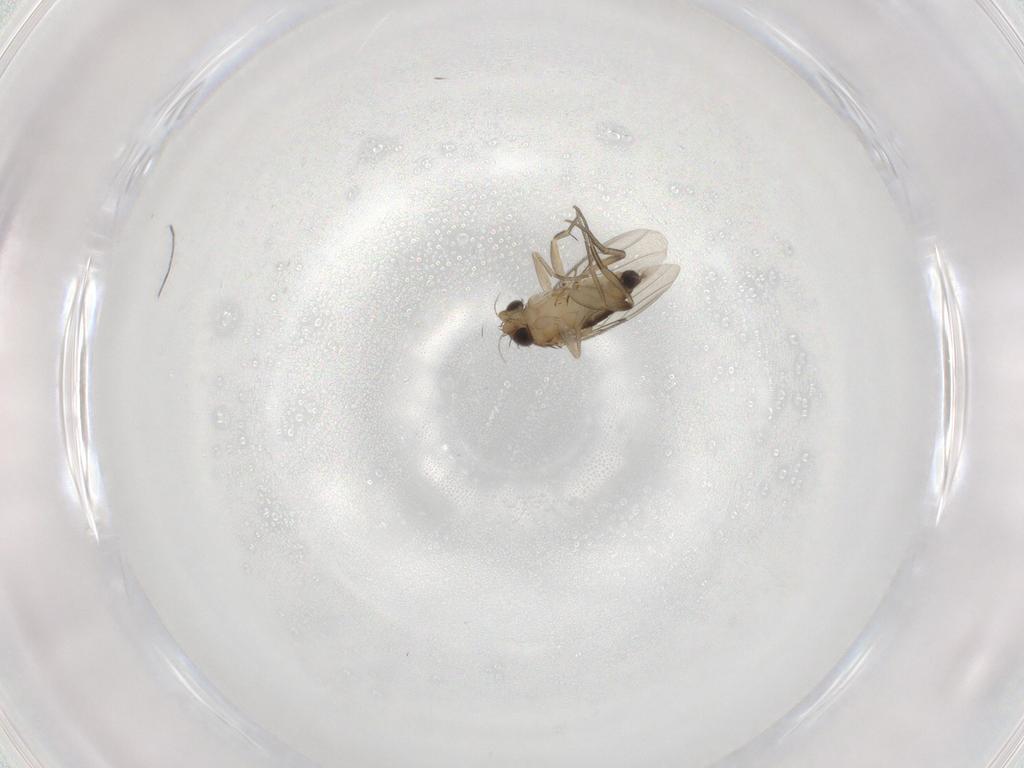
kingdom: Animalia
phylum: Arthropoda
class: Insecta
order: Diptera
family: Phoridae
